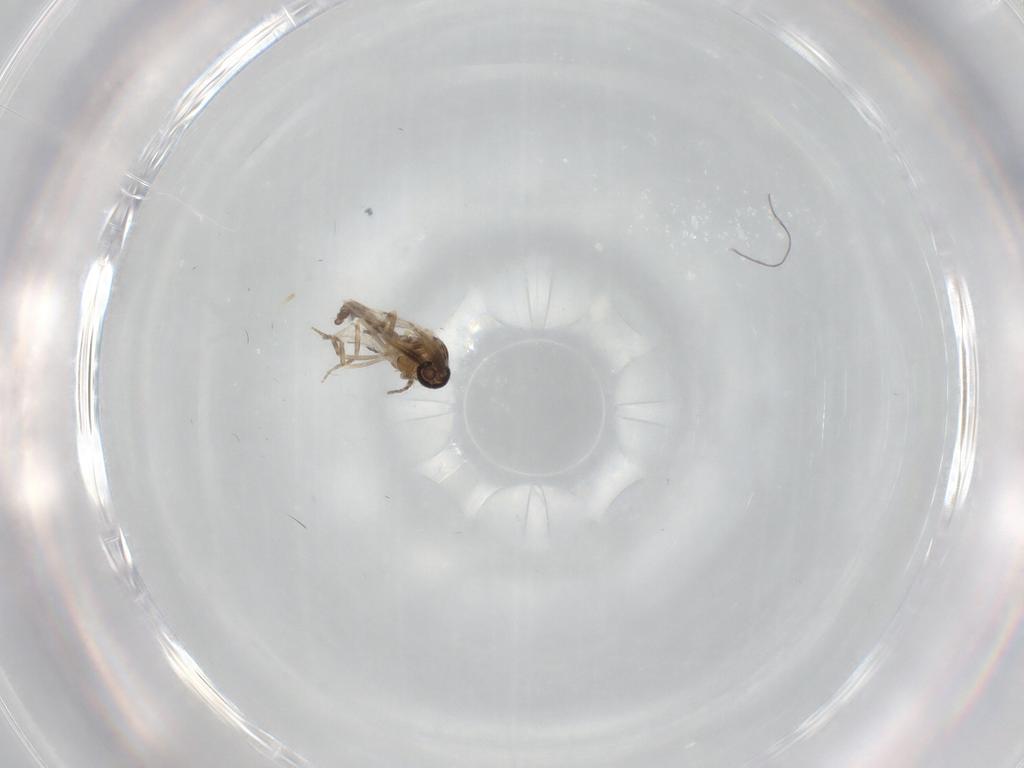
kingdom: Animalia
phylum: Arthropoda
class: Insecta
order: Diptera
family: Ceratopogonidae
